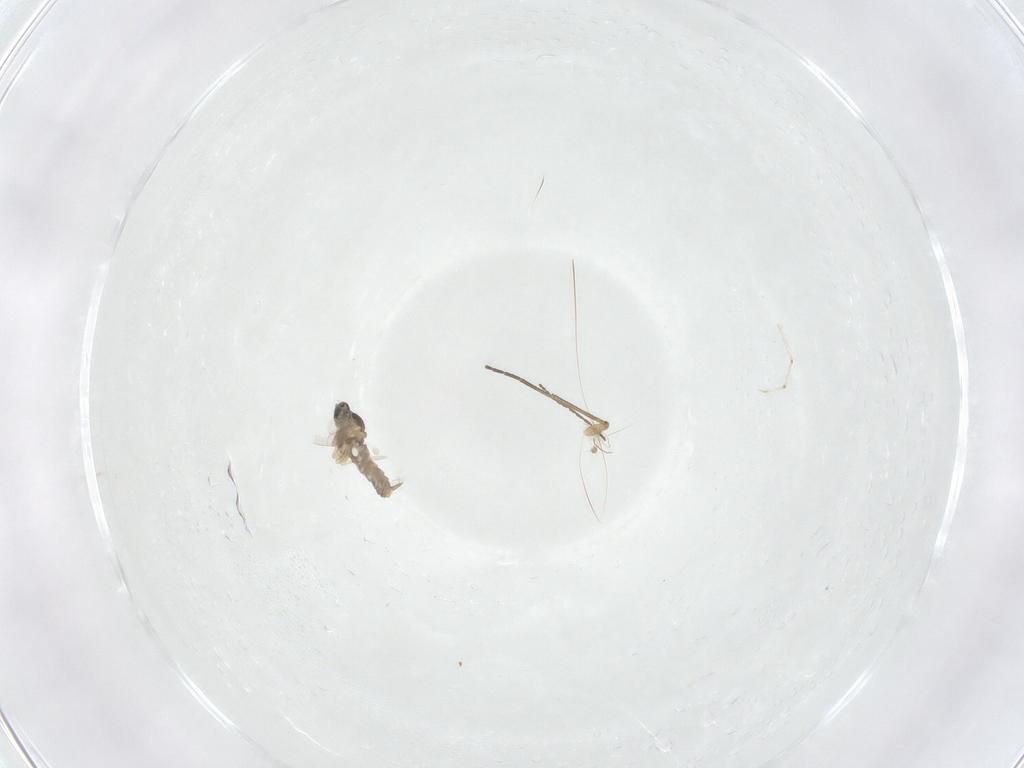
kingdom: Animalia
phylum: Arthropoda
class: Insecta
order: Diptera
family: Cecidomyiidae
